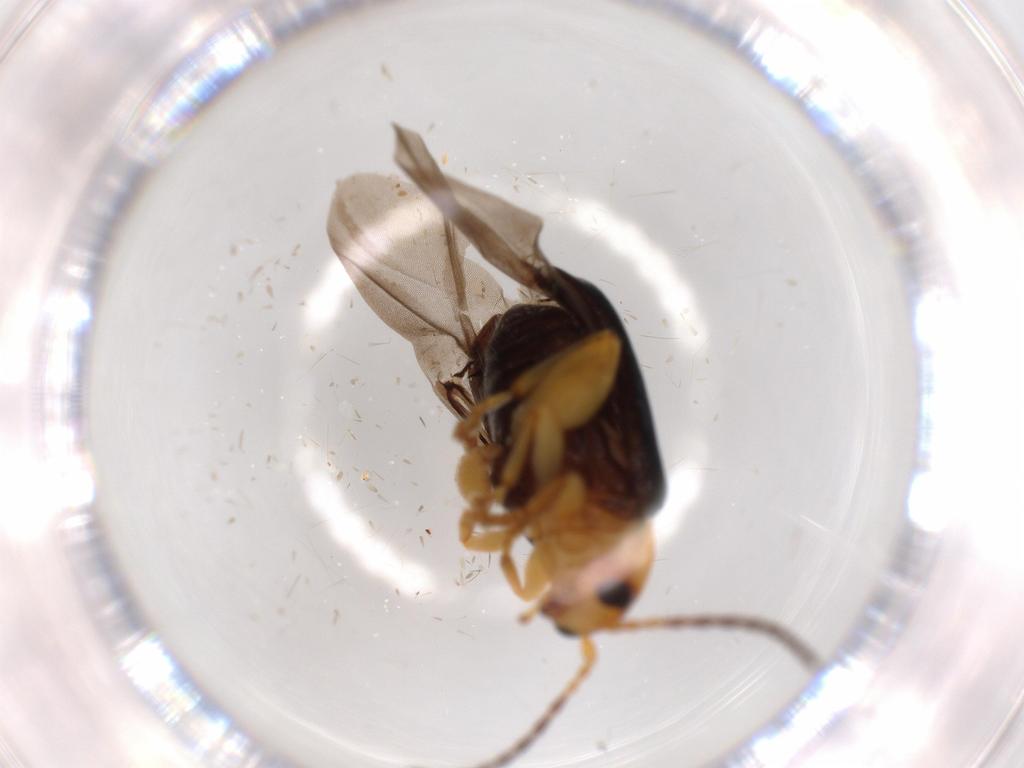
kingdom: Animalia
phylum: Arthropoda
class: Insecta
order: Coleoptera
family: Chrysomelidae
